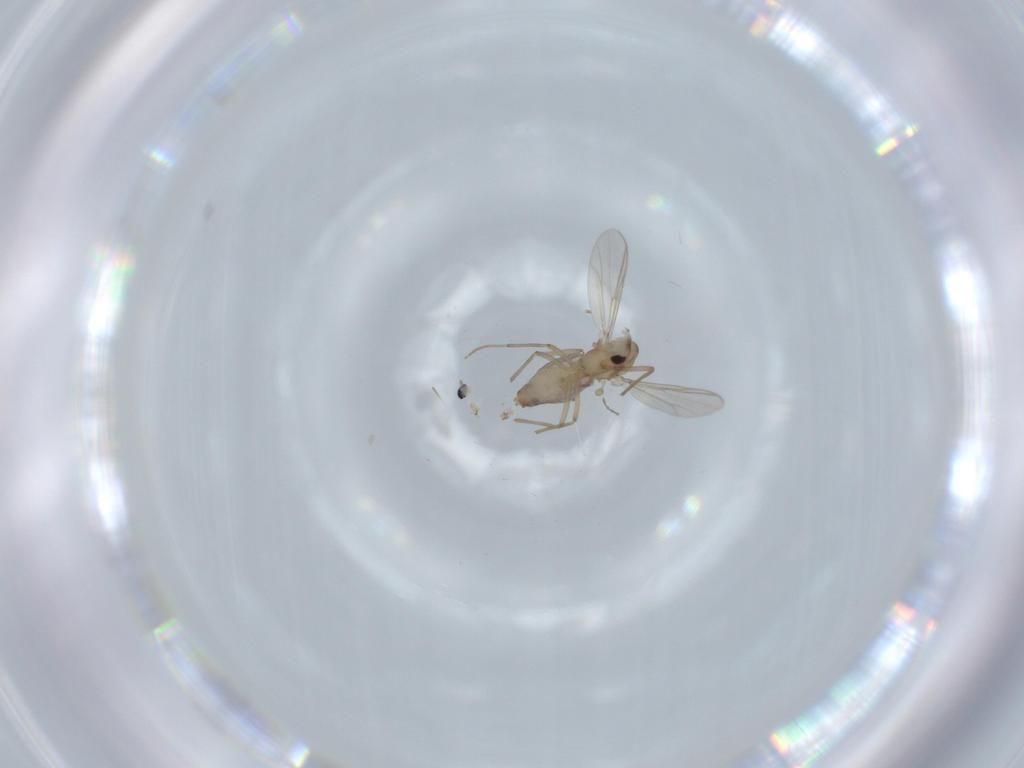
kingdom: Animalia
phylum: Arthropoda
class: Insecta
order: Diptera
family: Chironomidae
